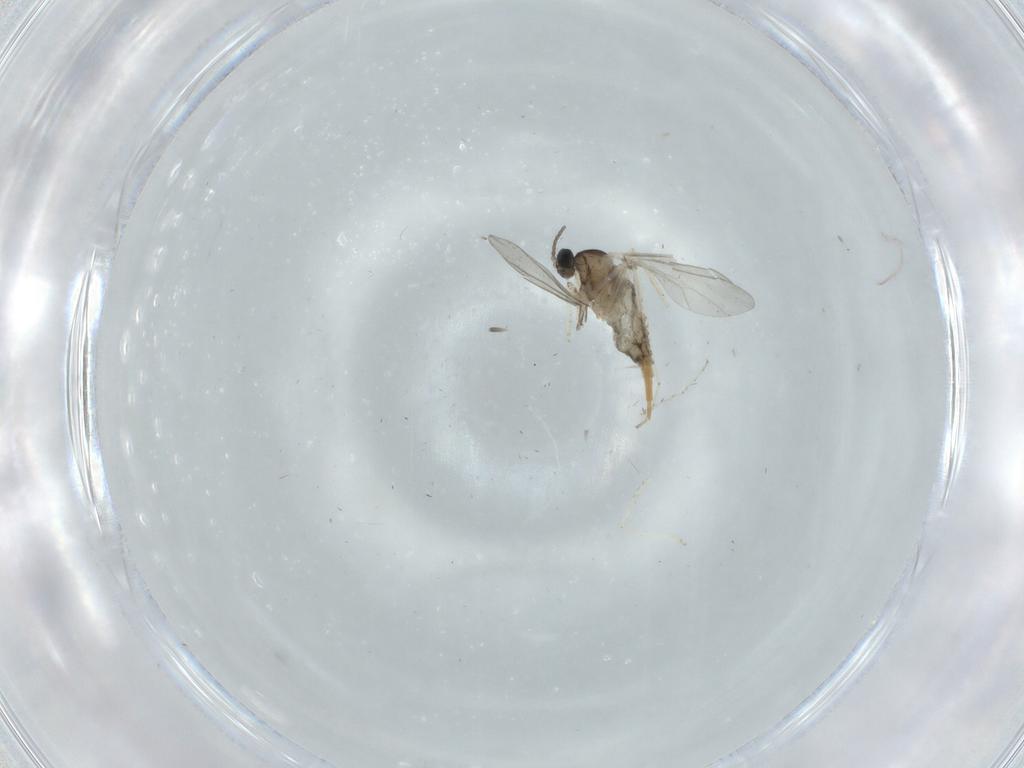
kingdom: Animalia
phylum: Arthropoda
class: Insecta
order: Diptera
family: Cecidomyiidae
